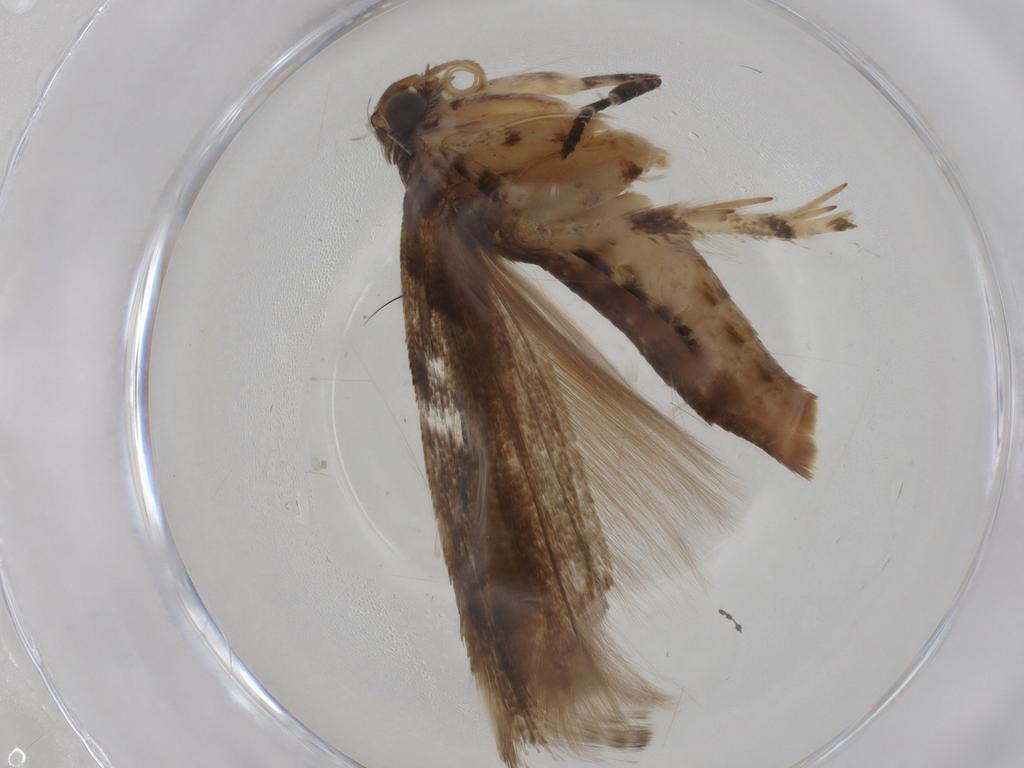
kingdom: Animalia
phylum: Arthropoda
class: Insecta
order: Lepidoptera
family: Gelechiidae
